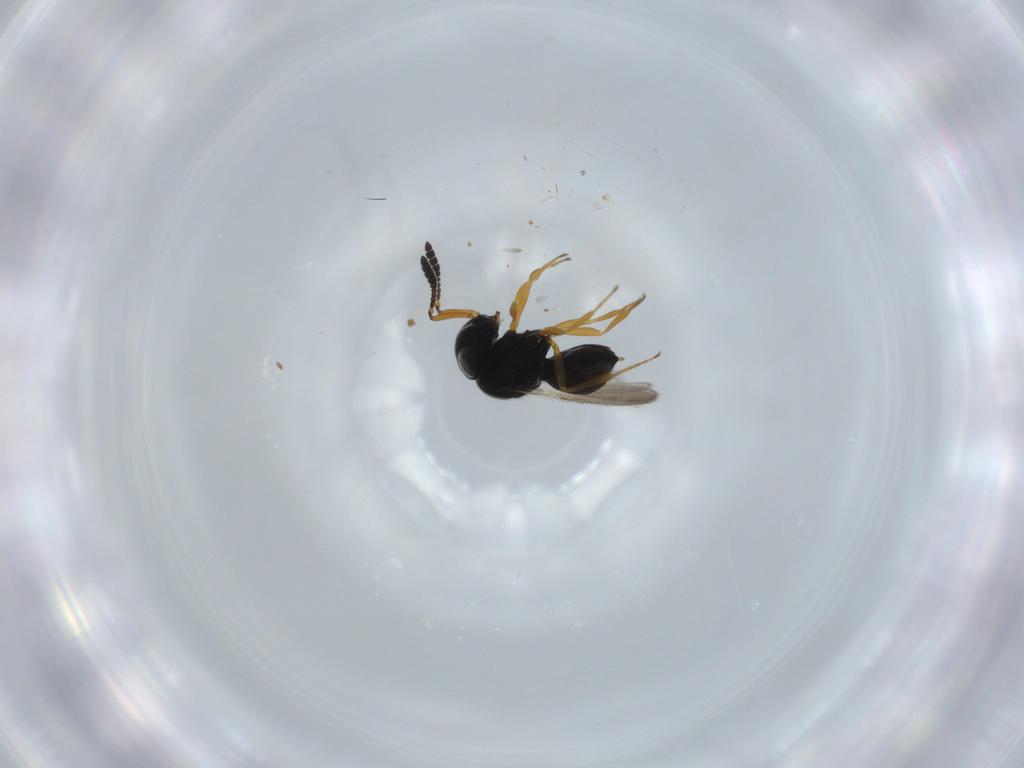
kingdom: Animalia
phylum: Arthropoda
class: Insecta
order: Hymenoptera
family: Scelionidae
